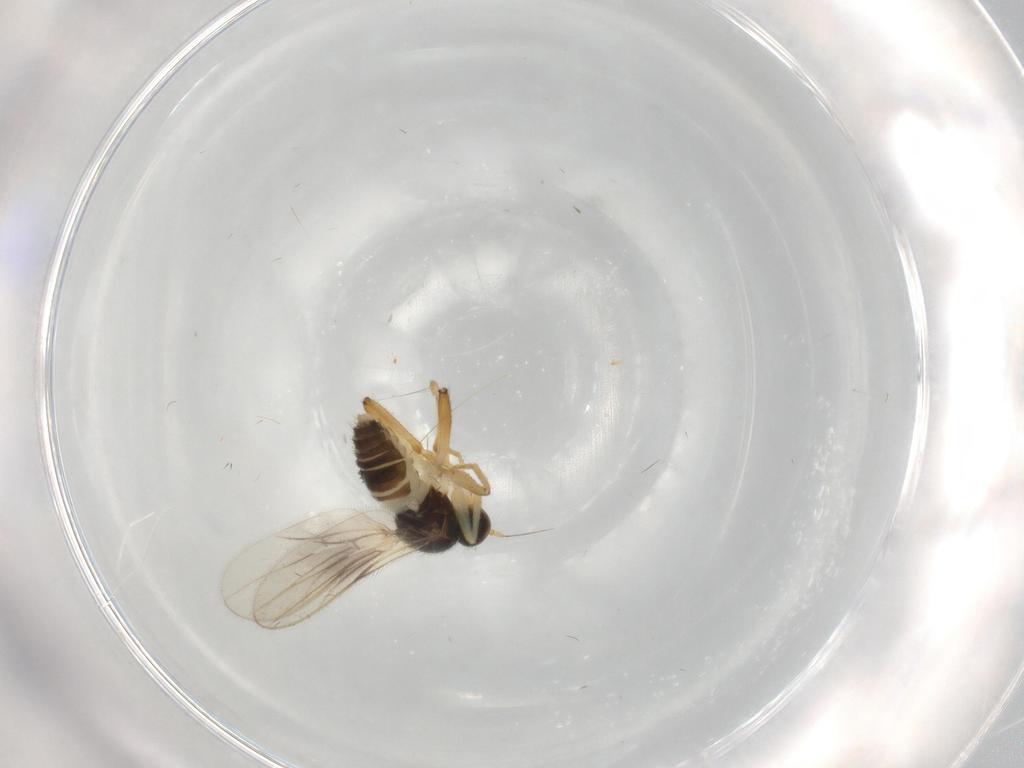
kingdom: Animalia
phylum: Arthropoda
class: Insecta
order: Diptera
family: Hybotidae
